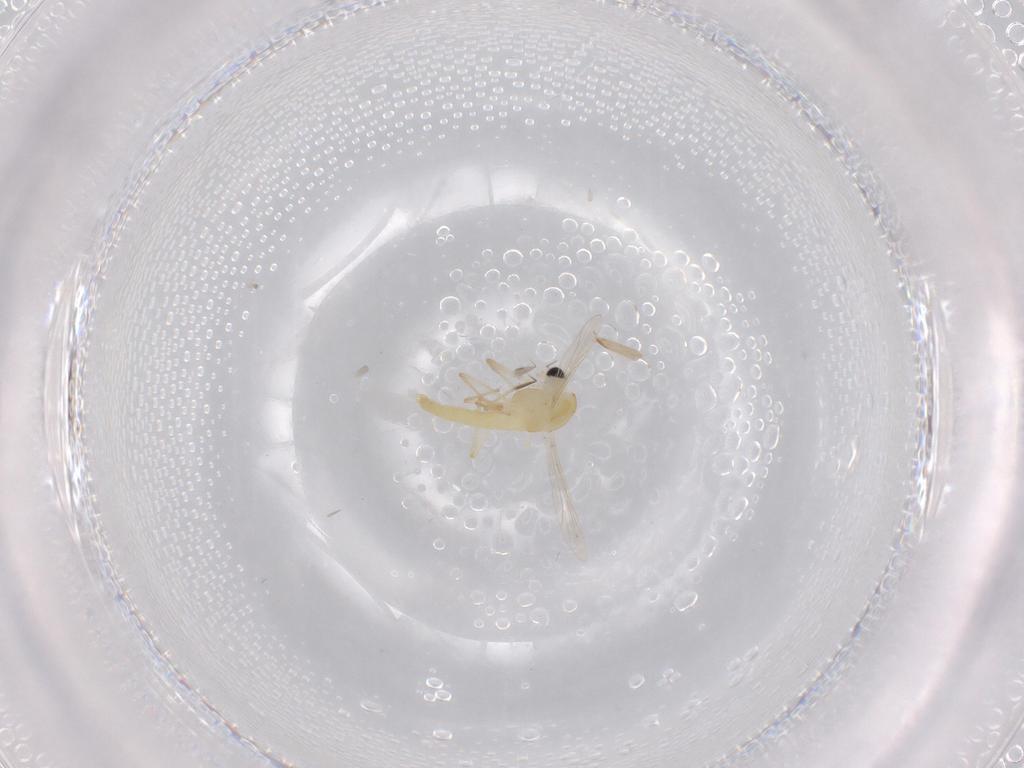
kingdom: Animalia
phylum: Arthropoda
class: Insecta
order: Diptera
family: Chironomidae
